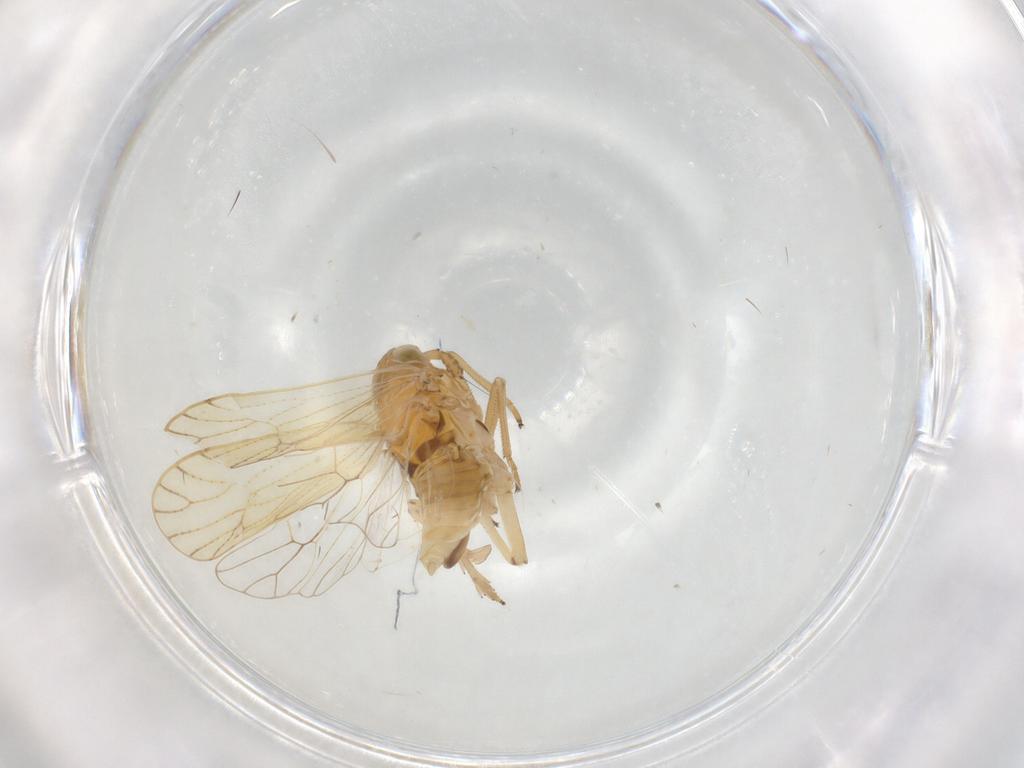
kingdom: Animalia
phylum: Arthropoda
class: Insecta
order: Hemiptera
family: Delphacidae
